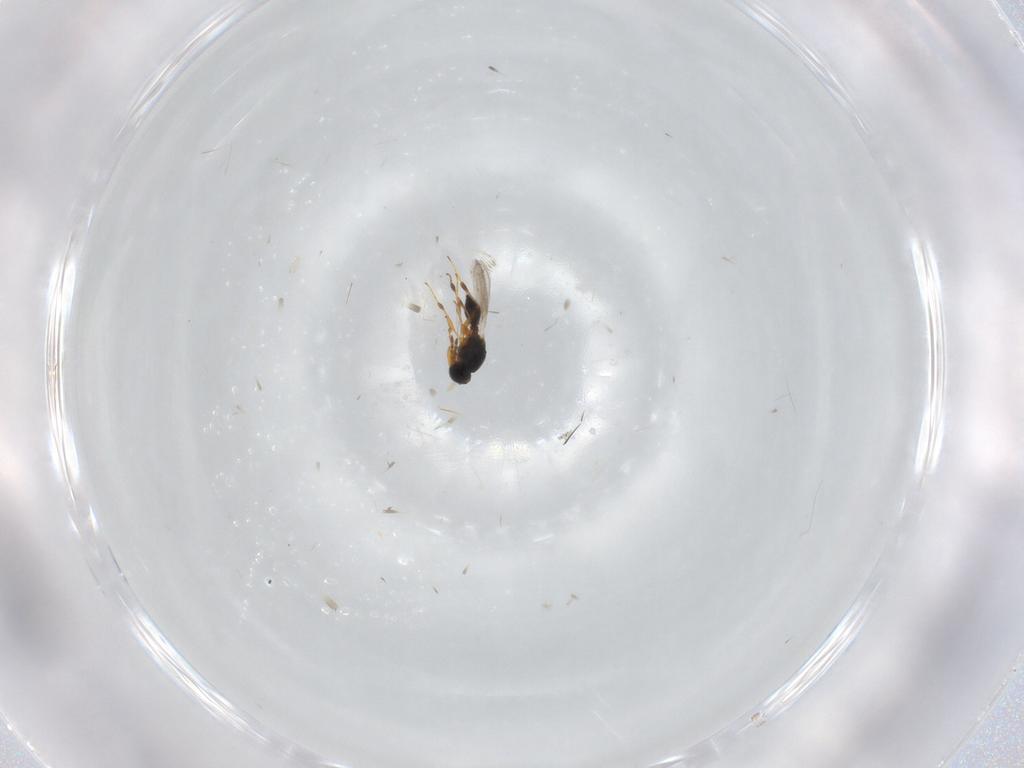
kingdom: Animalia
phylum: Arthropoda
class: Insecta
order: Hymenoptera
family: Platygastridae
